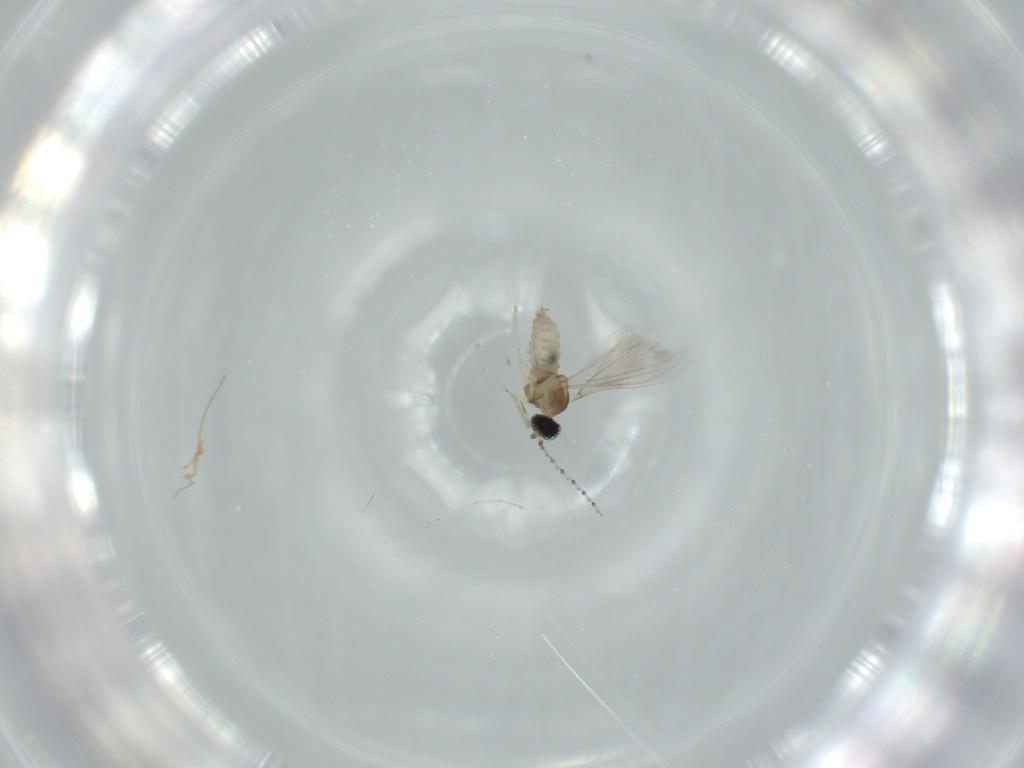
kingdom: Animalia
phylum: Arthropoda
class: Insecta
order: Diptera
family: Cecidomyiidae
